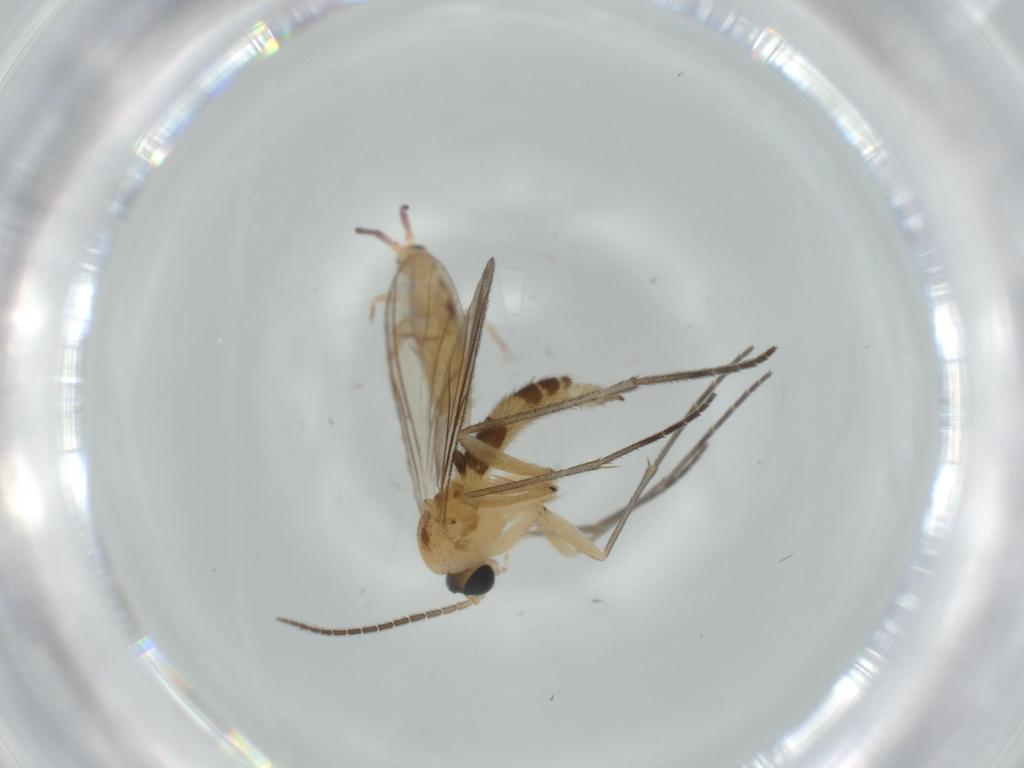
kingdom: Animalia
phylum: Arthropoda
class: Insecta
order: Diptera
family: Sciaridae
